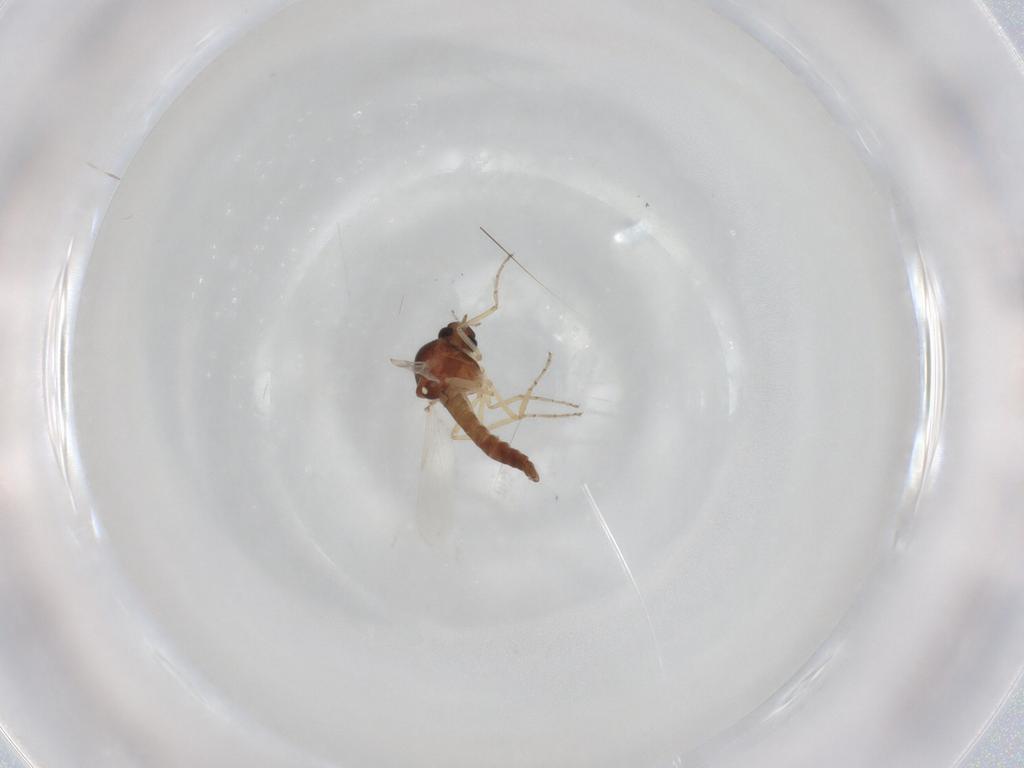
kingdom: Animalia
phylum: Arthropoda
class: Insecta
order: Diptera
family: Ceratopogonidae
